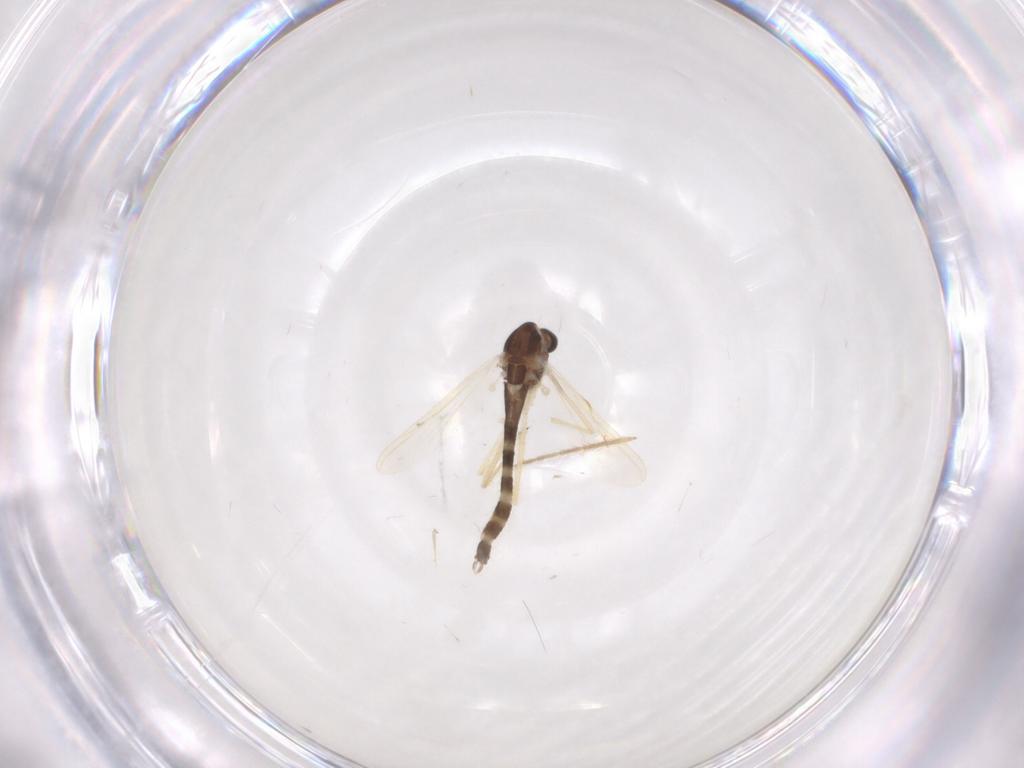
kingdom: Animalia
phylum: Arthropoda
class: Insecta
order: Diptera
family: Chironomidae
